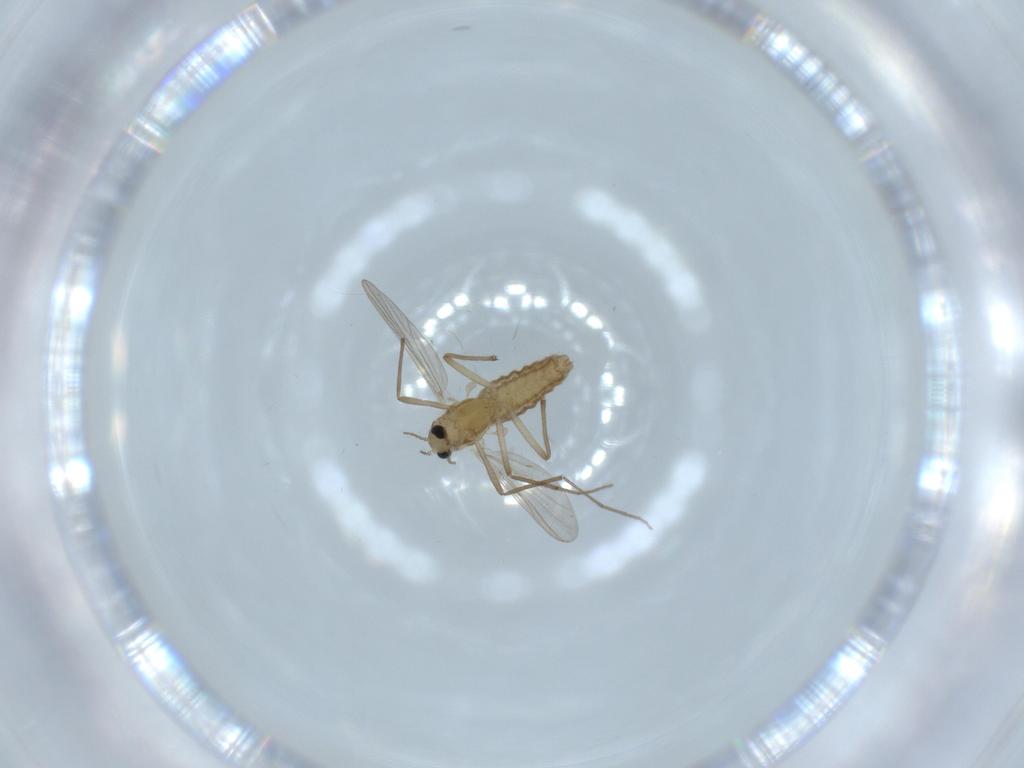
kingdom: Animalia
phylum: Arthropoda
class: Insecta
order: Diptera
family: Cecidomyiidae
